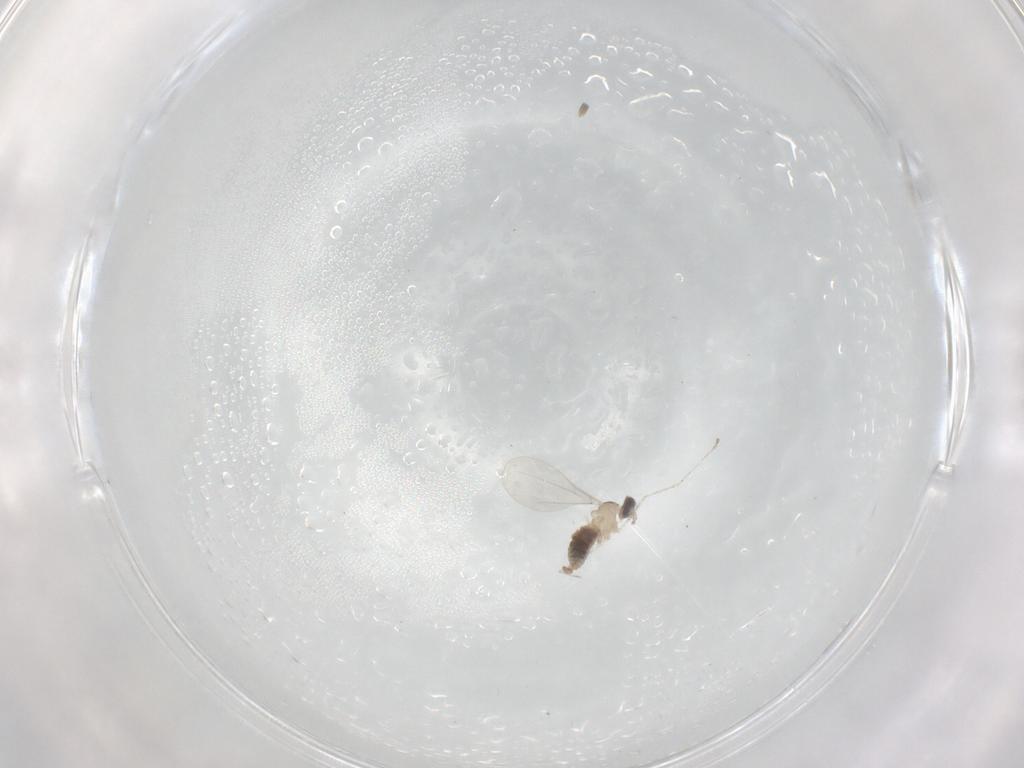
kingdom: Animalia
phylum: Arthropoda
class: Insecta
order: Diptera
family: Cecidomyiidae
